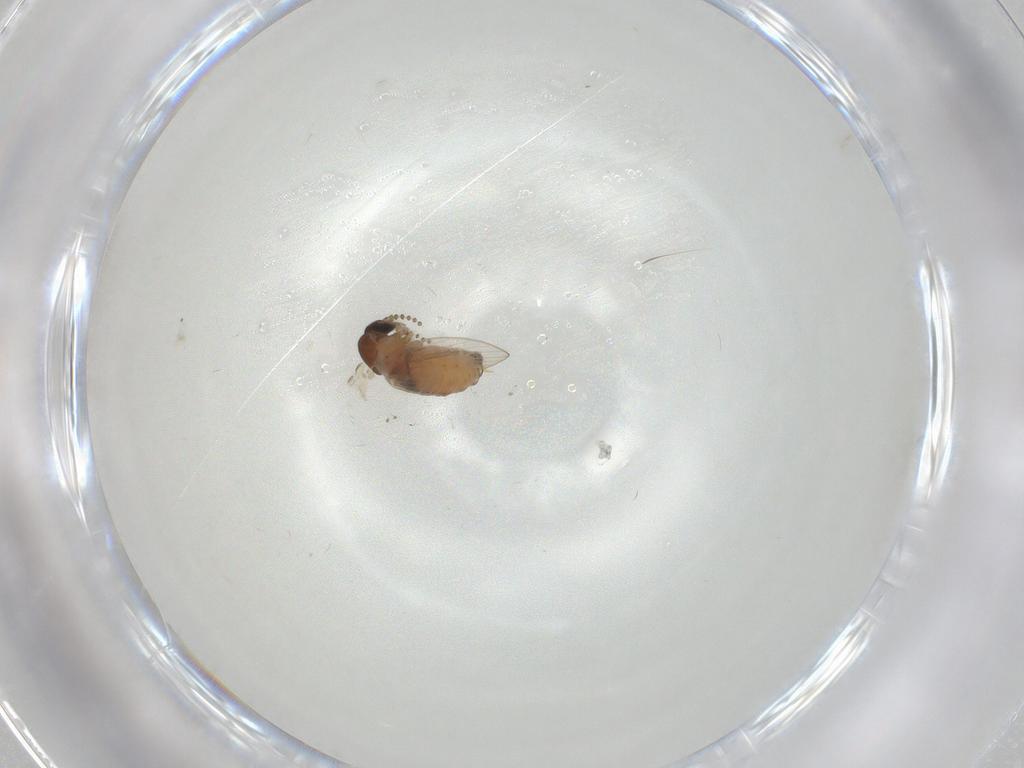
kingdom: Animalia
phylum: Arthropoda
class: Insecta
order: Diptera
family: Psychodidae
